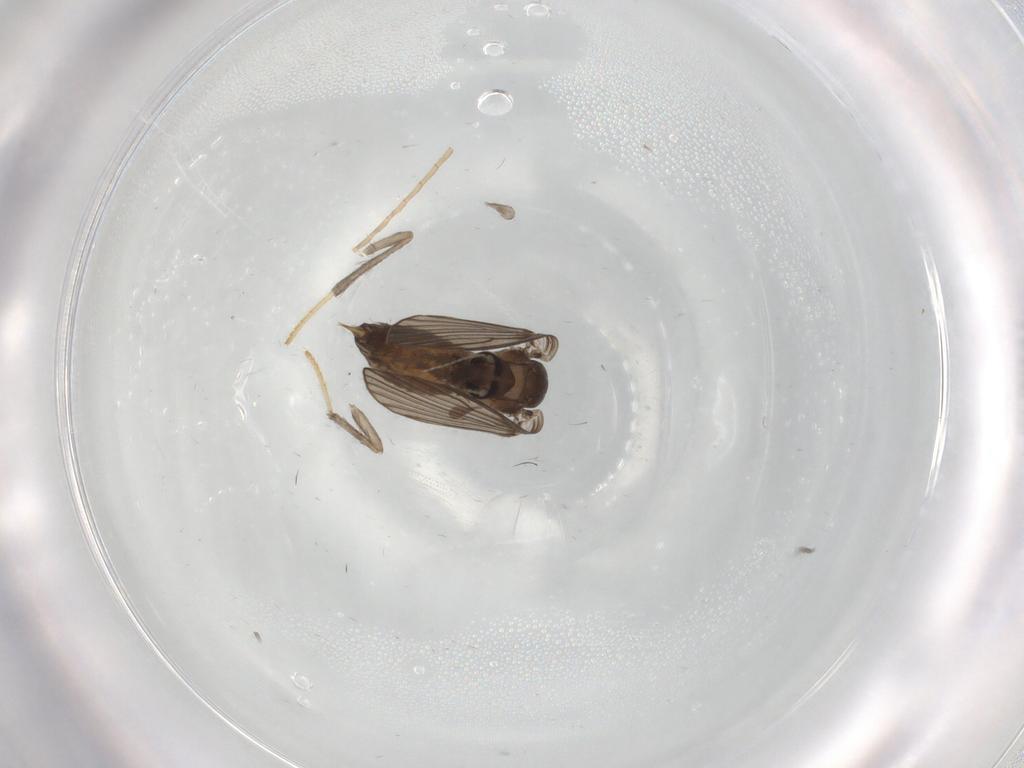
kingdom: Animalia
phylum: Arthropoda
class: Insecta
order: Diptera
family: Psychodidae
